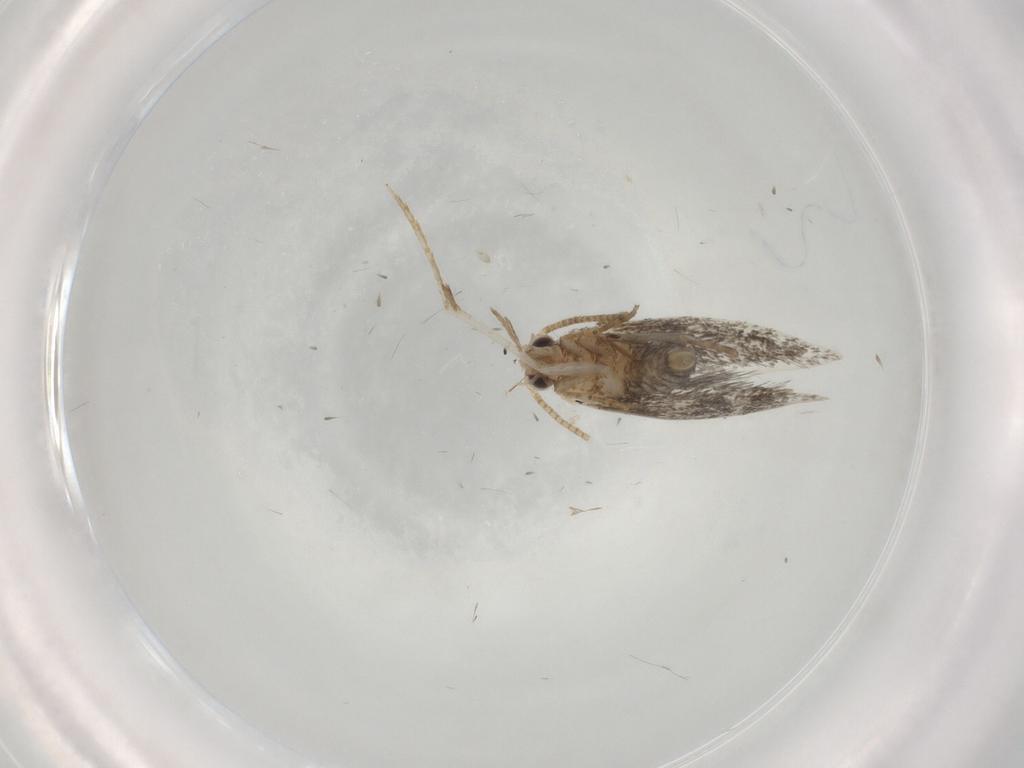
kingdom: Animalia
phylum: Arthropoda
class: Insecta
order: Lepidoptera
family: Tineidae
